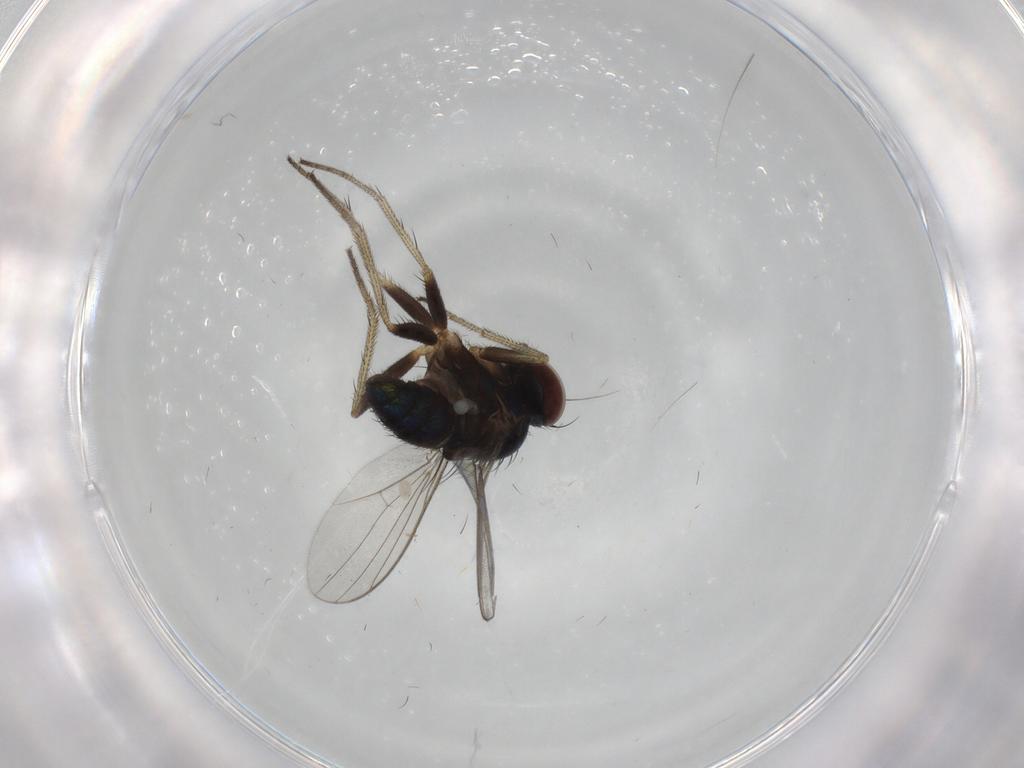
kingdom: Animalia
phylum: Arthropoda
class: Insecta
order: Diptera
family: Dolichopodidae
